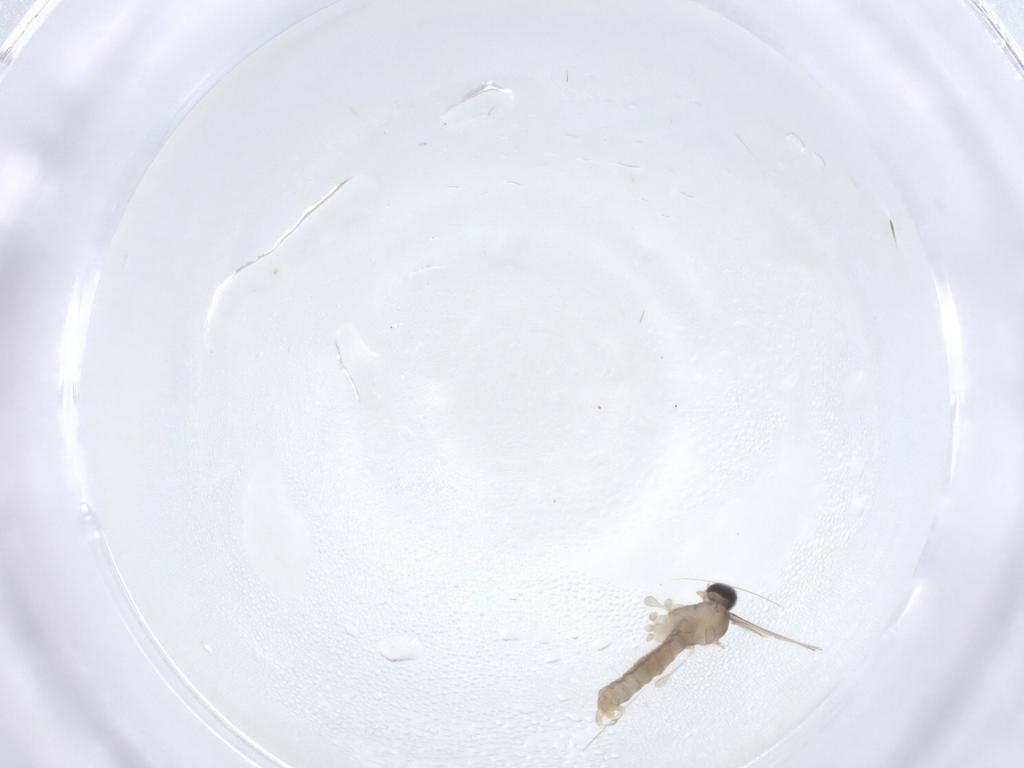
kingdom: Animalia
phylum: Arthropoda
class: Insecta
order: Diptera
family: Cecidomyiidae
